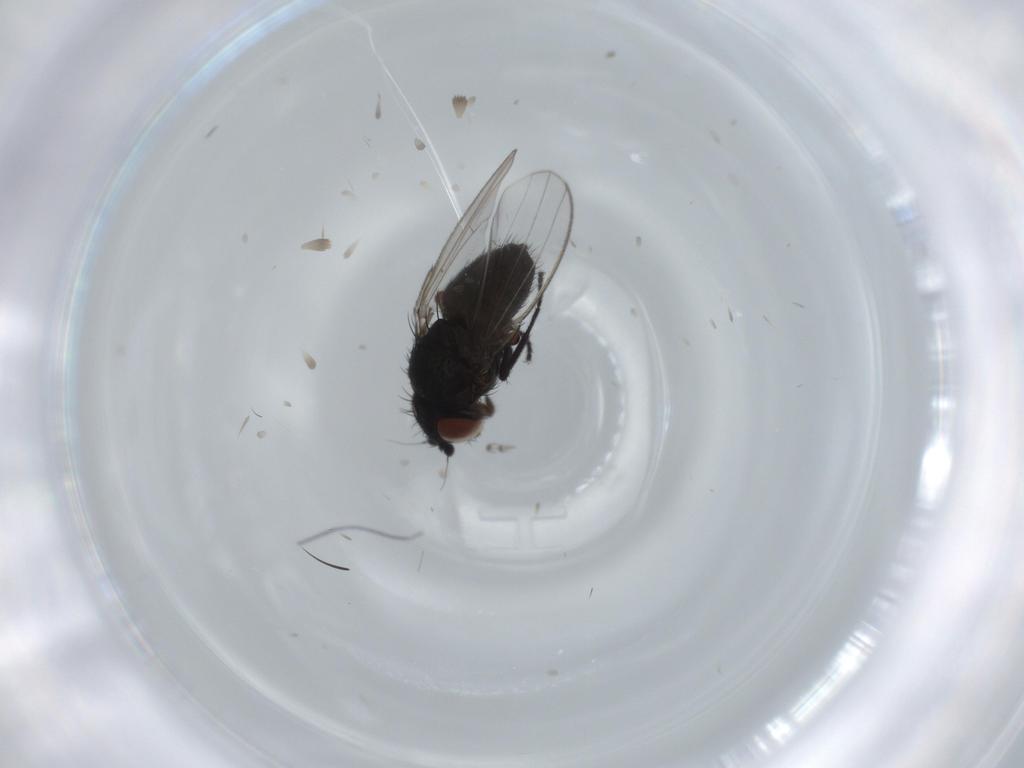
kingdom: Animalia
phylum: Arthropoda
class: Insecta
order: Diptera
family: Milichiidae
